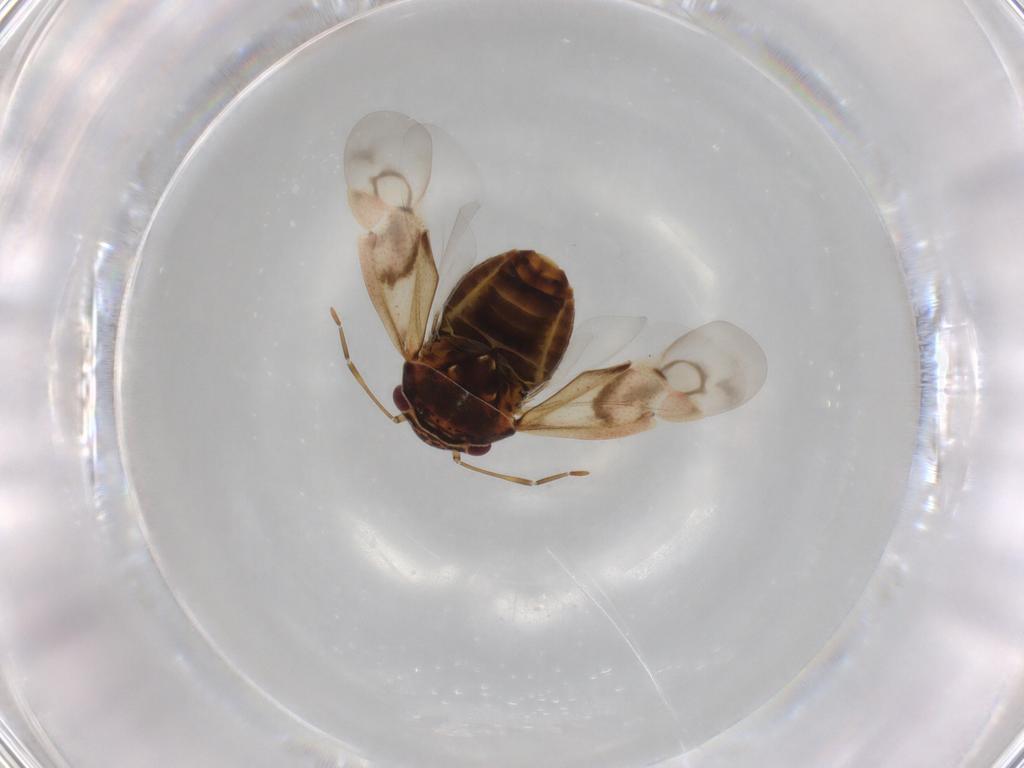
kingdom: Animalia
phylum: Arthropoda
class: Insecta
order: Hemiptera
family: Miridae
